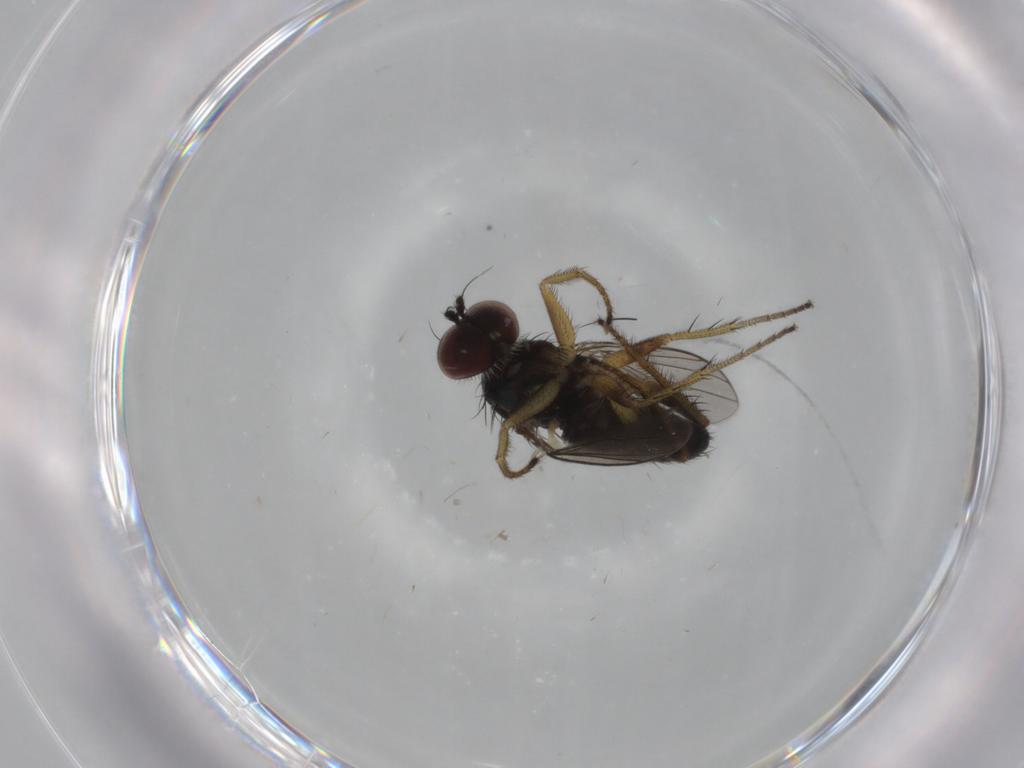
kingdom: Animalia
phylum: Arthropoda
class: Insecta
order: Diptera
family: Dolichopodidae
